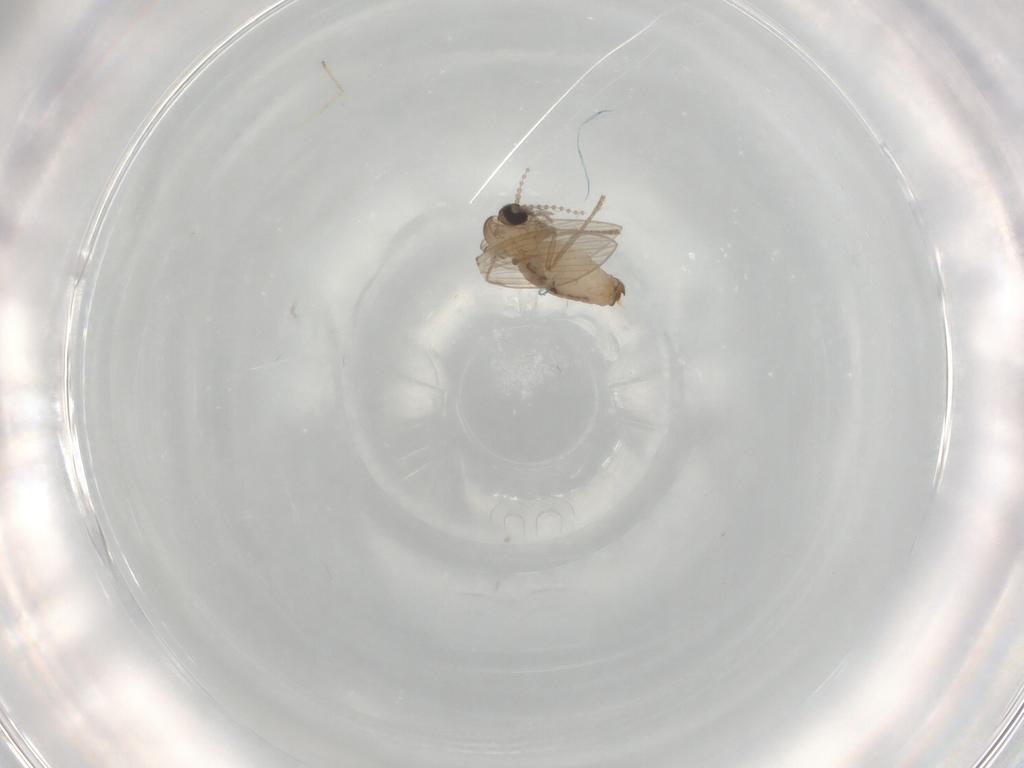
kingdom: Animalia
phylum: Arthropoda
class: Insecta
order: Diptera
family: Psychodidae
